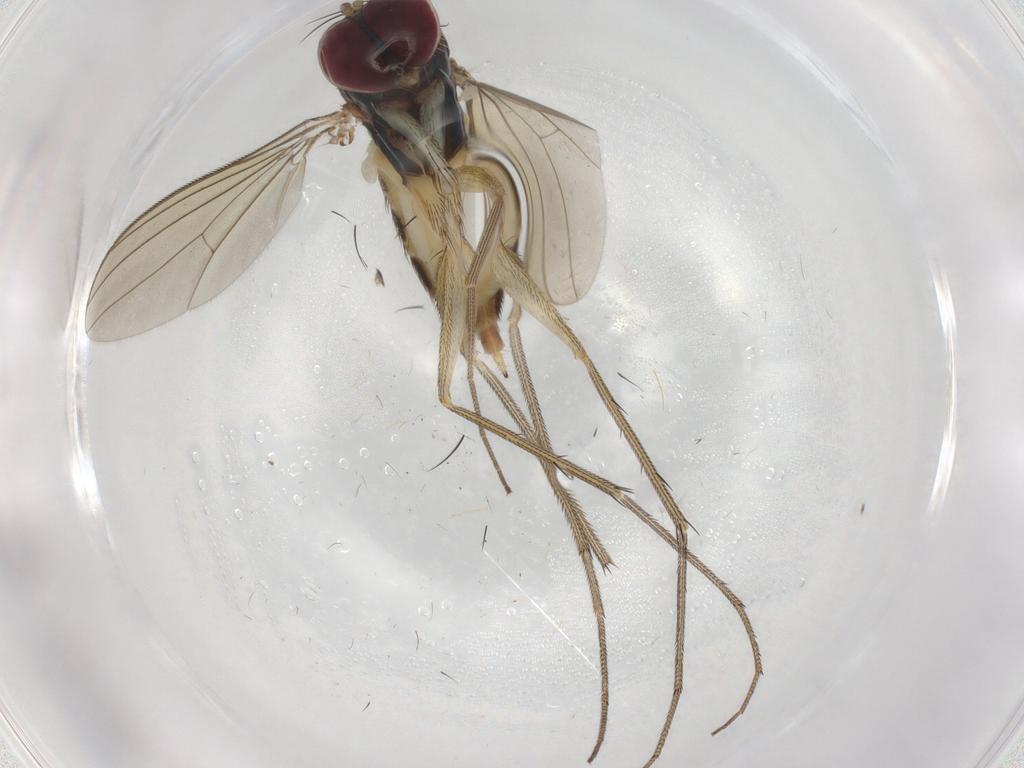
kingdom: Animalia
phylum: Arthropoda
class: Insecta
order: Diptera
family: Dolichopodidae
